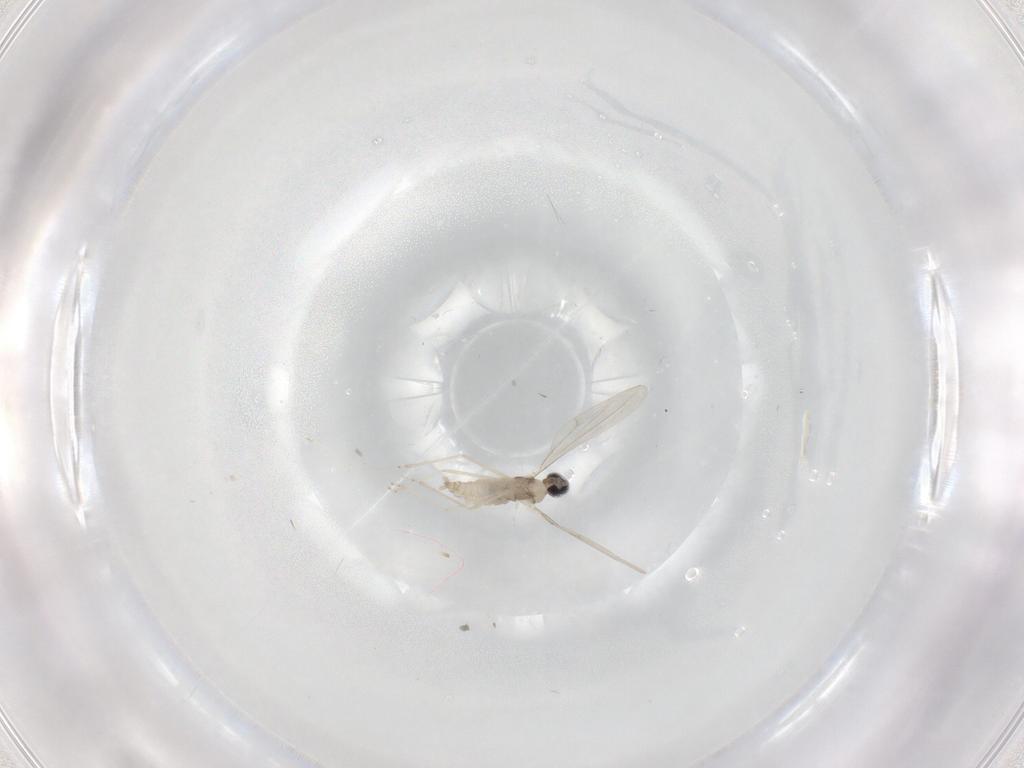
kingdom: Animalia
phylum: Arthropoda
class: Insecta
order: Diptera
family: Cecidomyiidae
